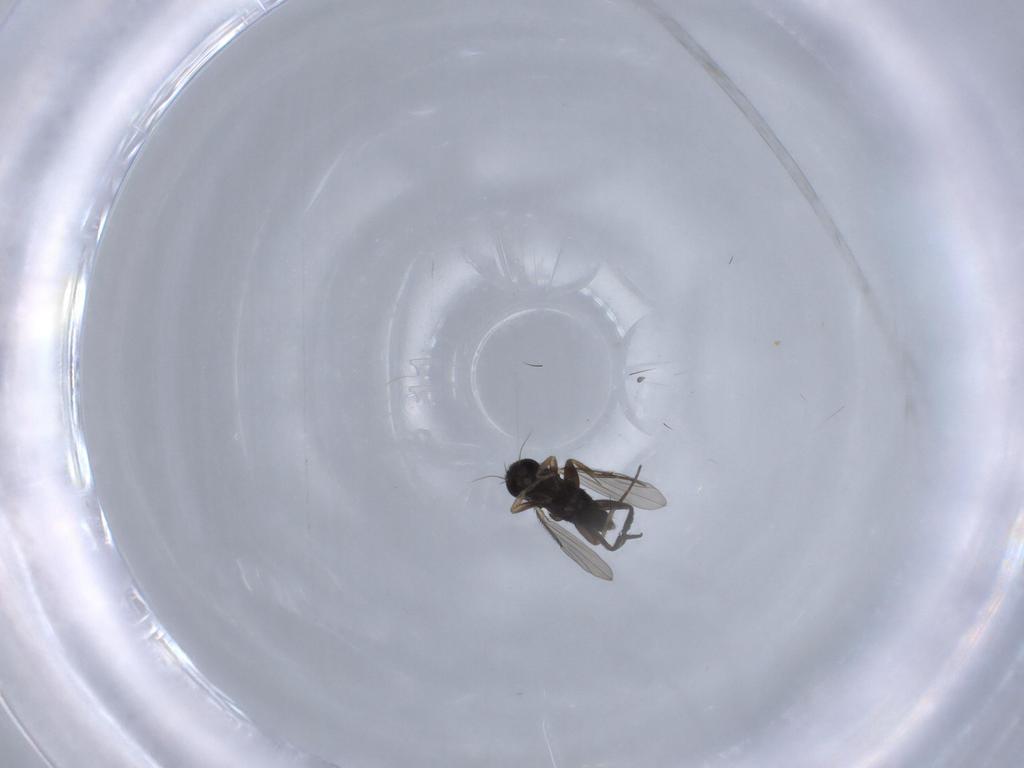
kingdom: Animalia
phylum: Arthropoda
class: Insecta
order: Diptera
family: Phoridae
